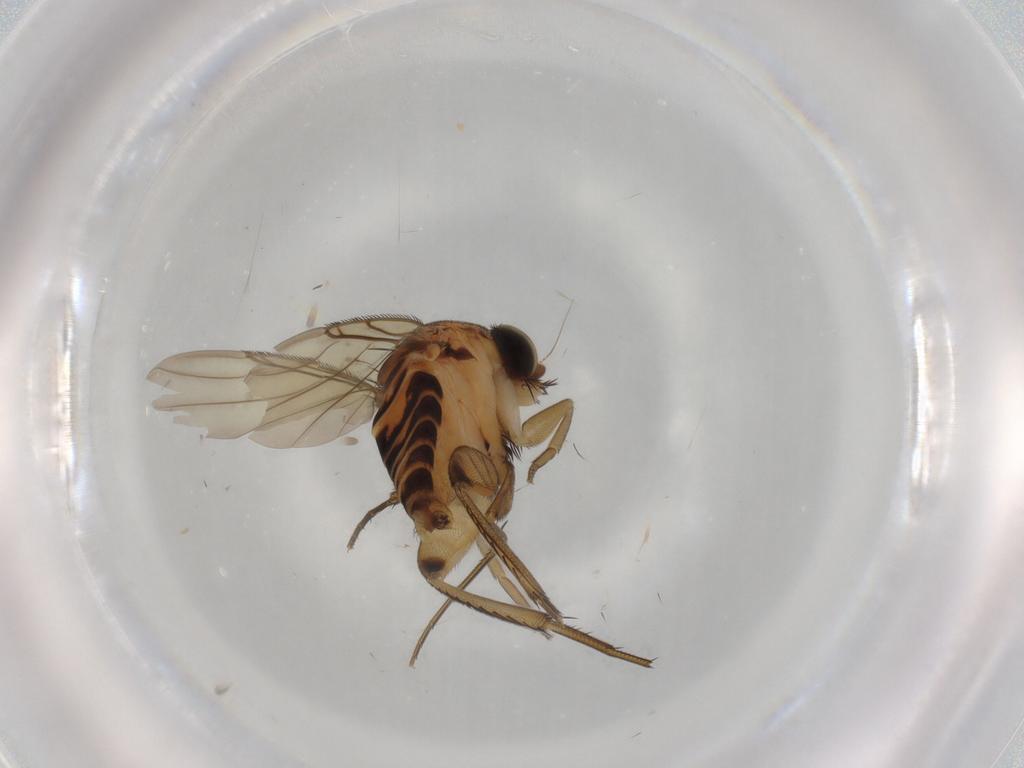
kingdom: Animalia
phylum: Arthropoda
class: Insecta
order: Diptera
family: Phoridae
